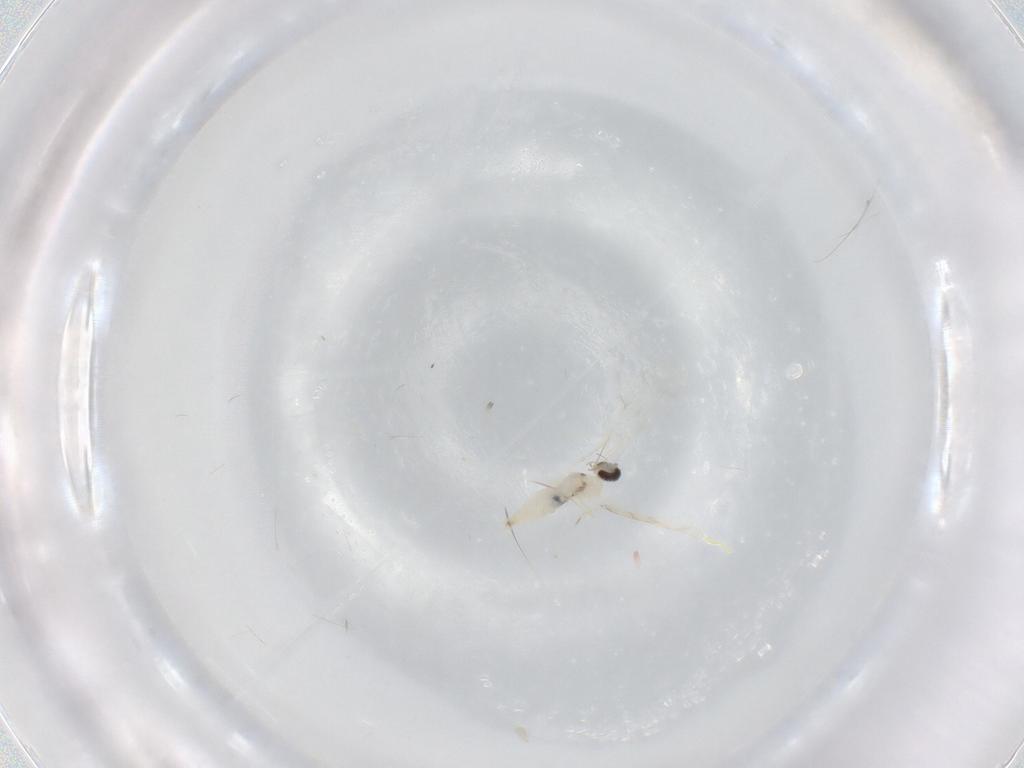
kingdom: Animalia
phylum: Arthropoda
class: Insecta
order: Diptera
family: Cecidomyiidae
